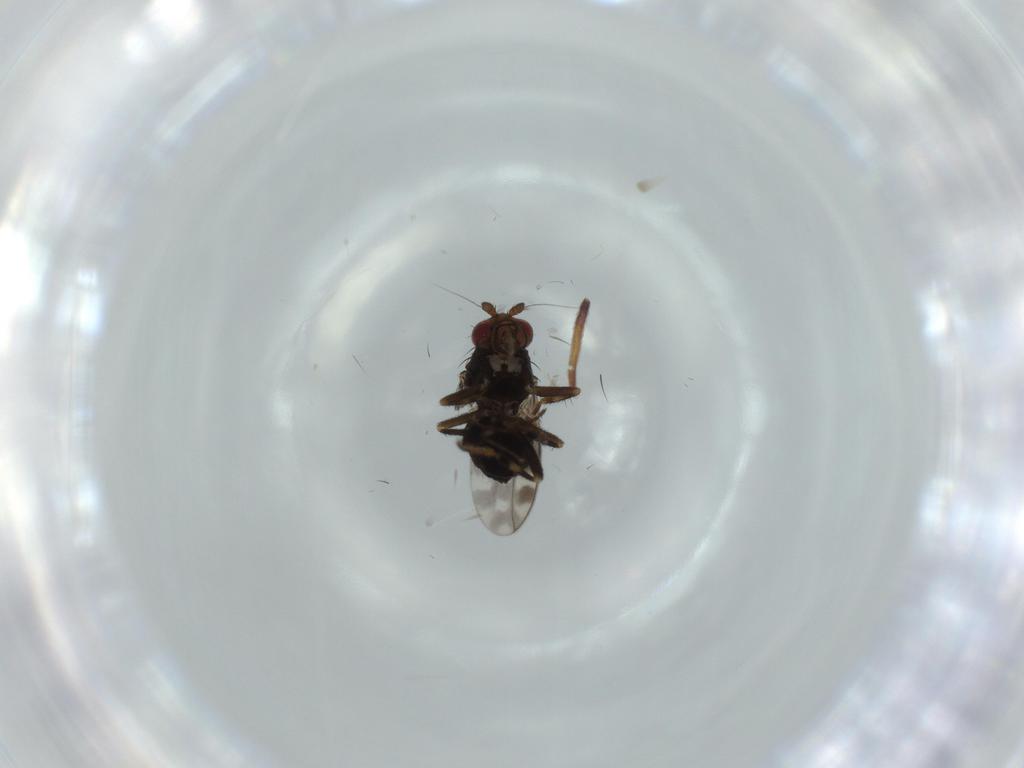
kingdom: Animalia
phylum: Arthropoda
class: Insecta
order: Diptera
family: Sphaeroceridae
